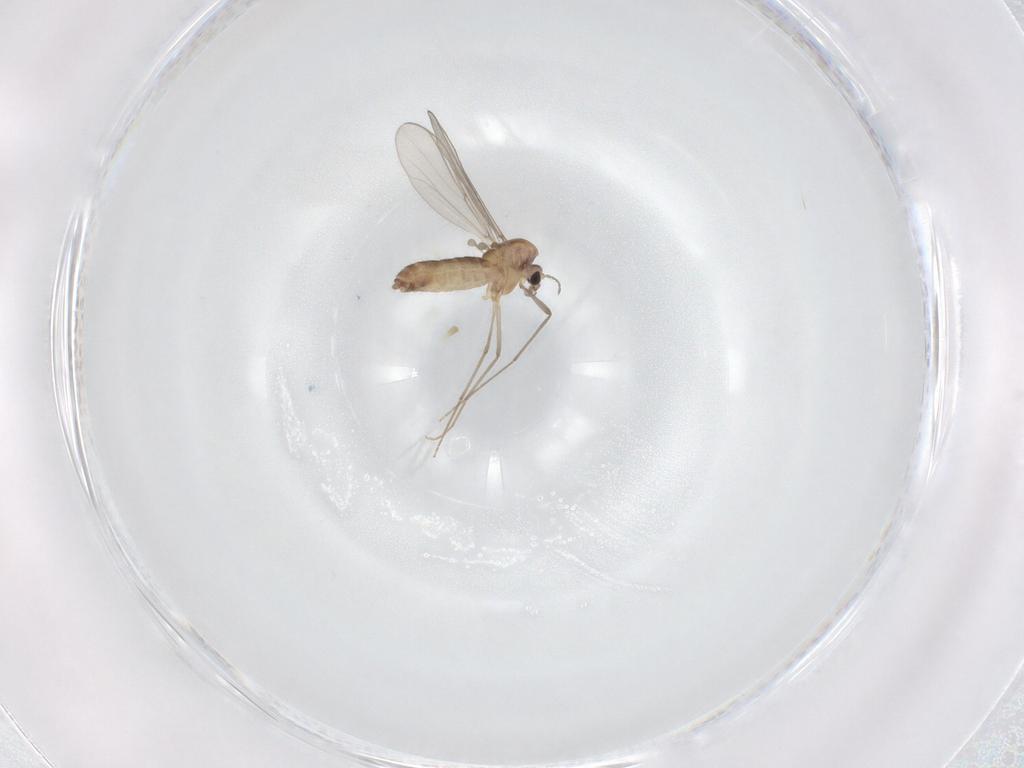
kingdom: Animalia
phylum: Arthropoda
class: Insecta
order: Diptera
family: Chironomidae
